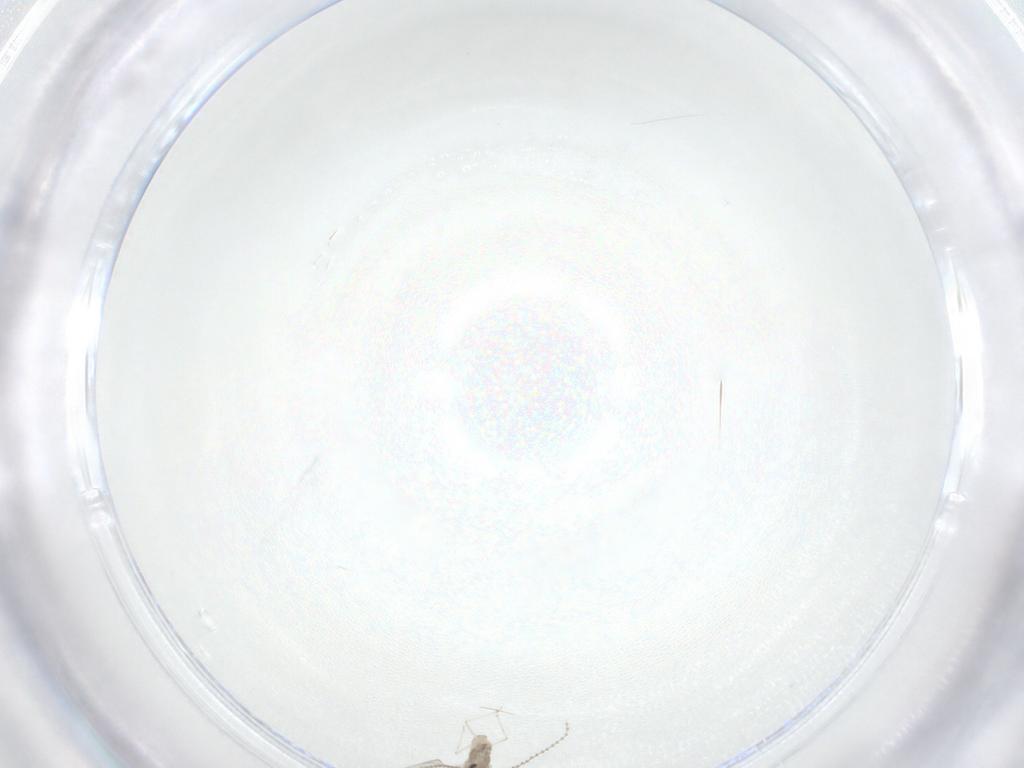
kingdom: Animalia
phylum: Arthropoda
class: Insecta
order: Diptera
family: Cecidomyiidae
